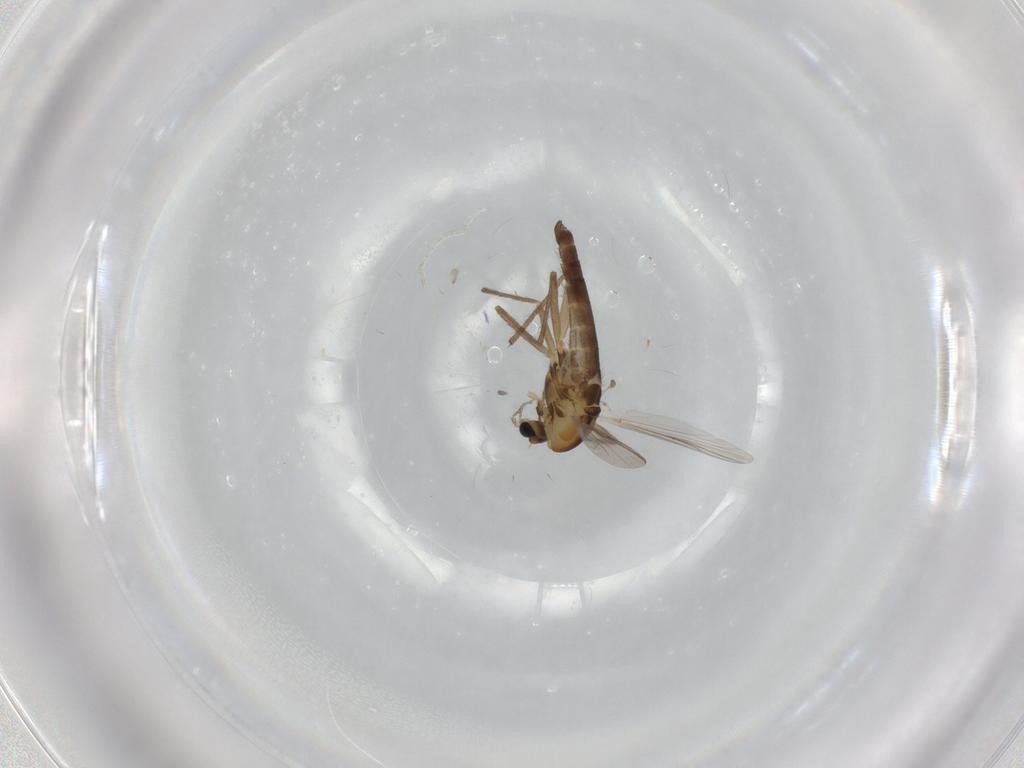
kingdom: Animalia
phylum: Arthropoda
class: Insecta
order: Diptera
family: Chironomidae
